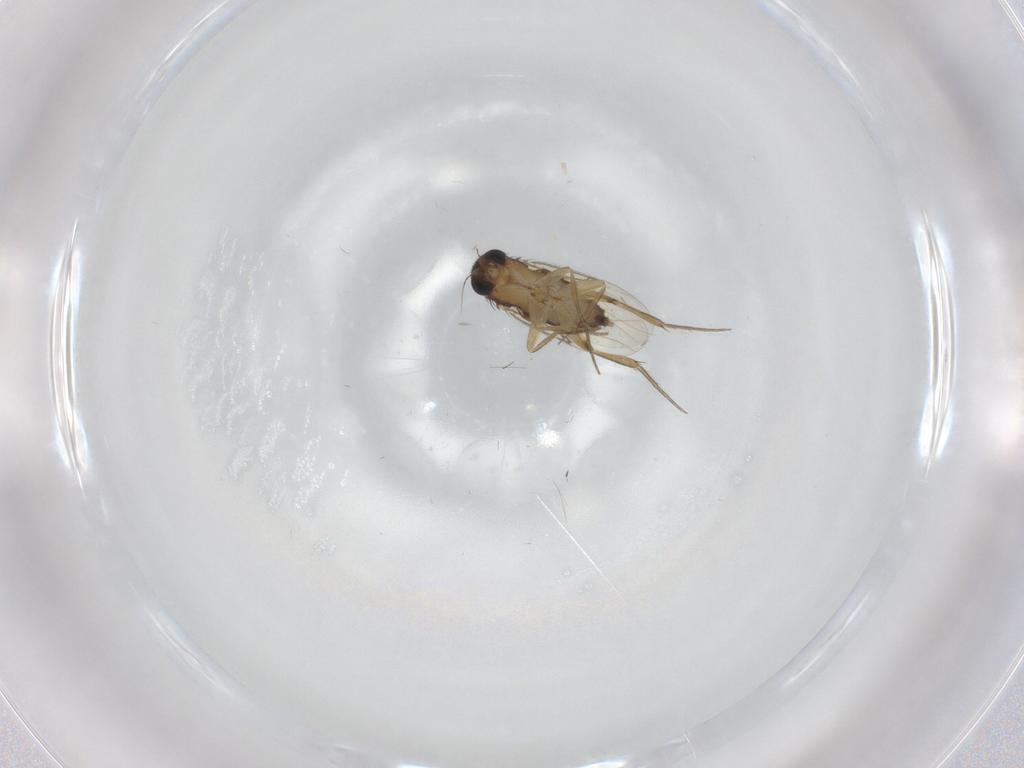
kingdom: Animalia
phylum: Arthropoda
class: Insecta
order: Diptera
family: Phoridae
